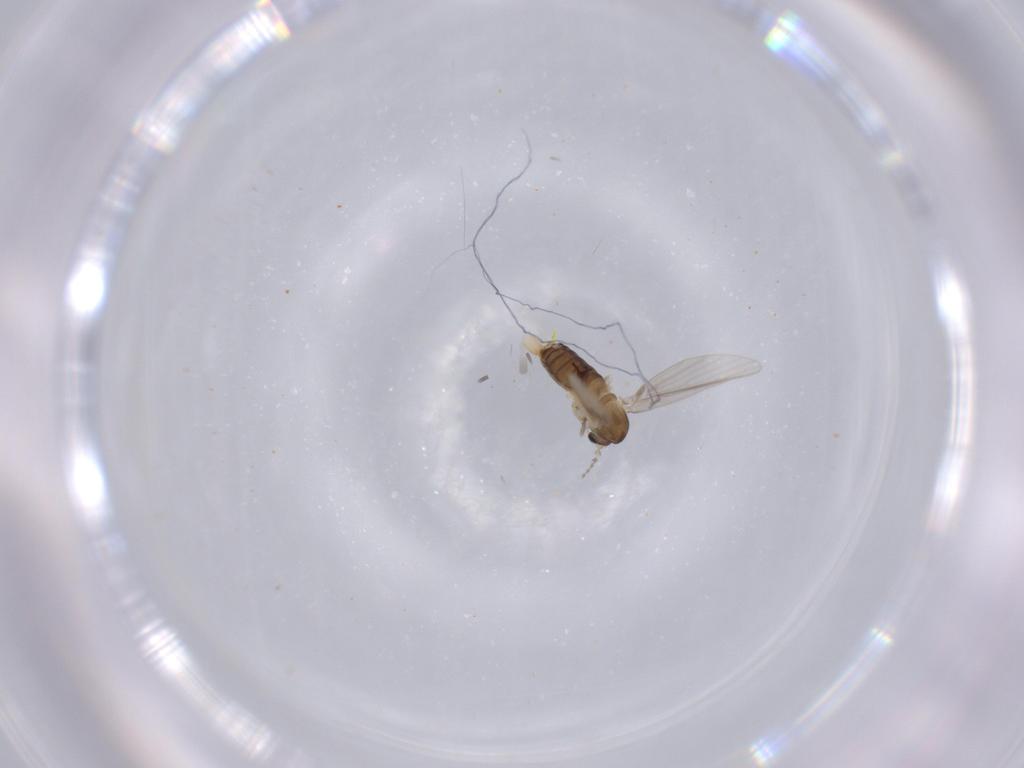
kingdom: Animalia
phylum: Arthropoda
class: Insecta
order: Diptera
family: Psychodidae
